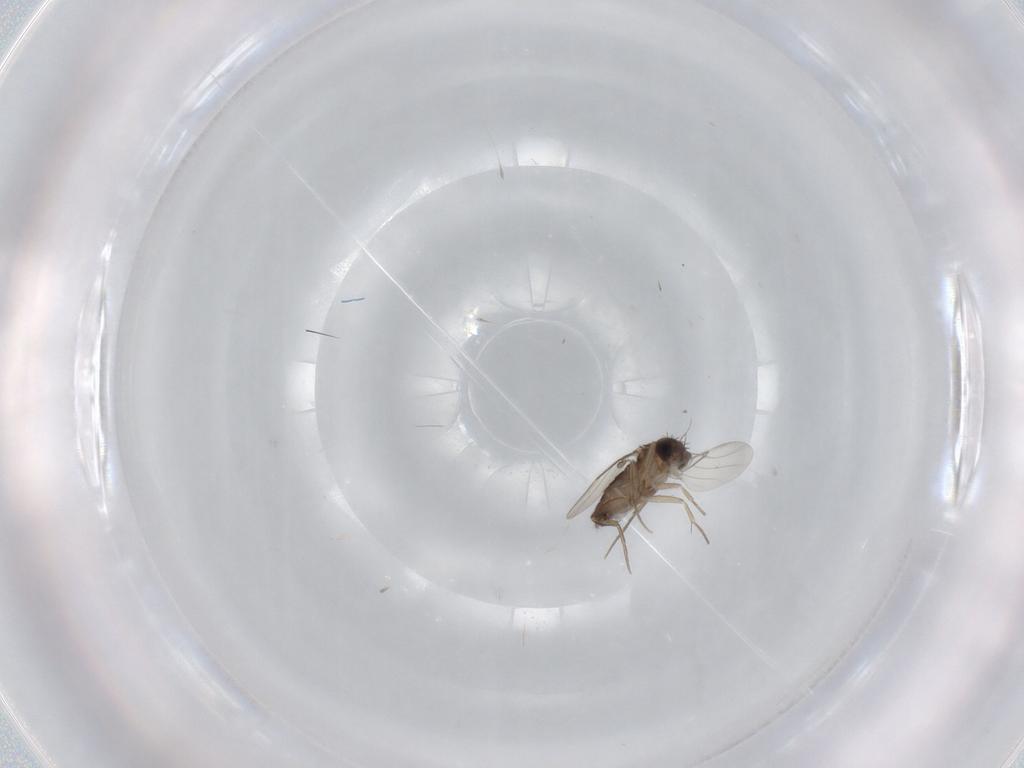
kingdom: Animalia
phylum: Arthropoda
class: Insecta
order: Diptera
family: Phoridae
